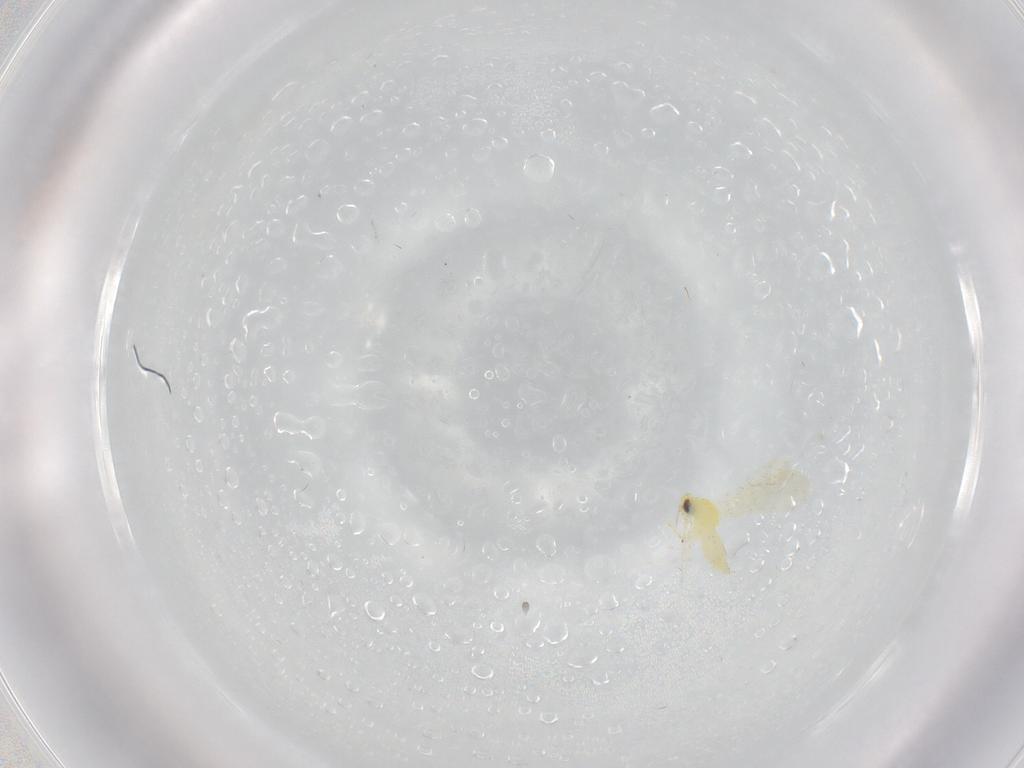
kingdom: Animalia
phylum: Arthropoda
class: Insecta
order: Hemiptera
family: Aleyrodidae
